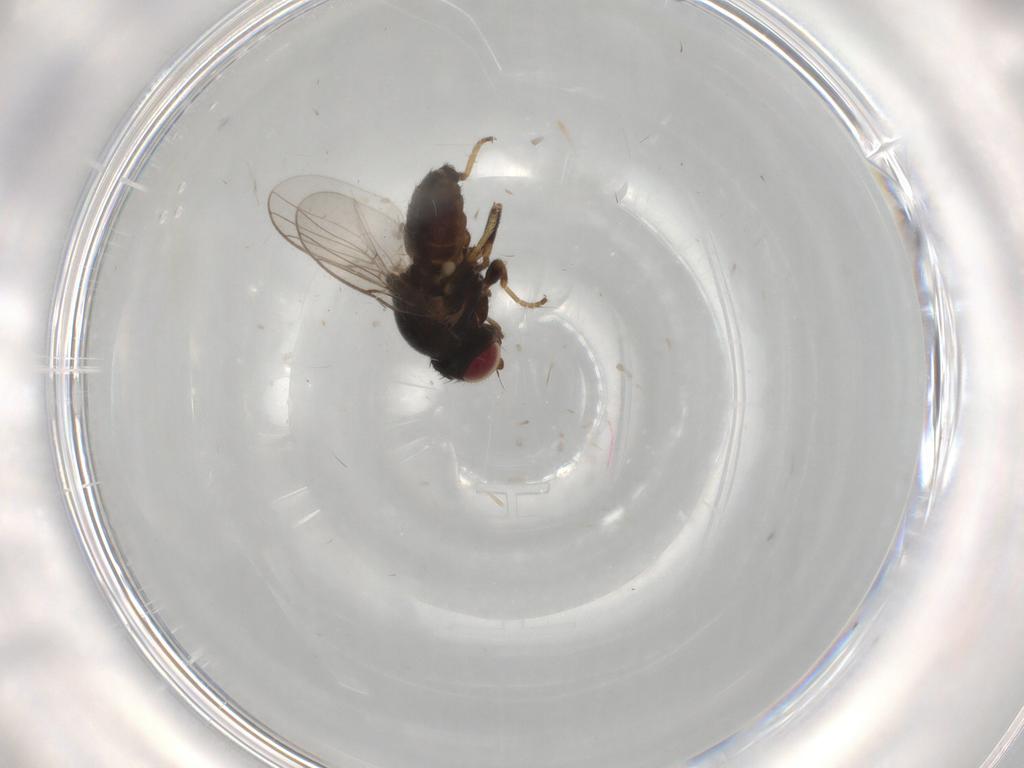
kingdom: Animalia
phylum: Arthropoda
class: Insecta
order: Diptera
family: Chloropidae
